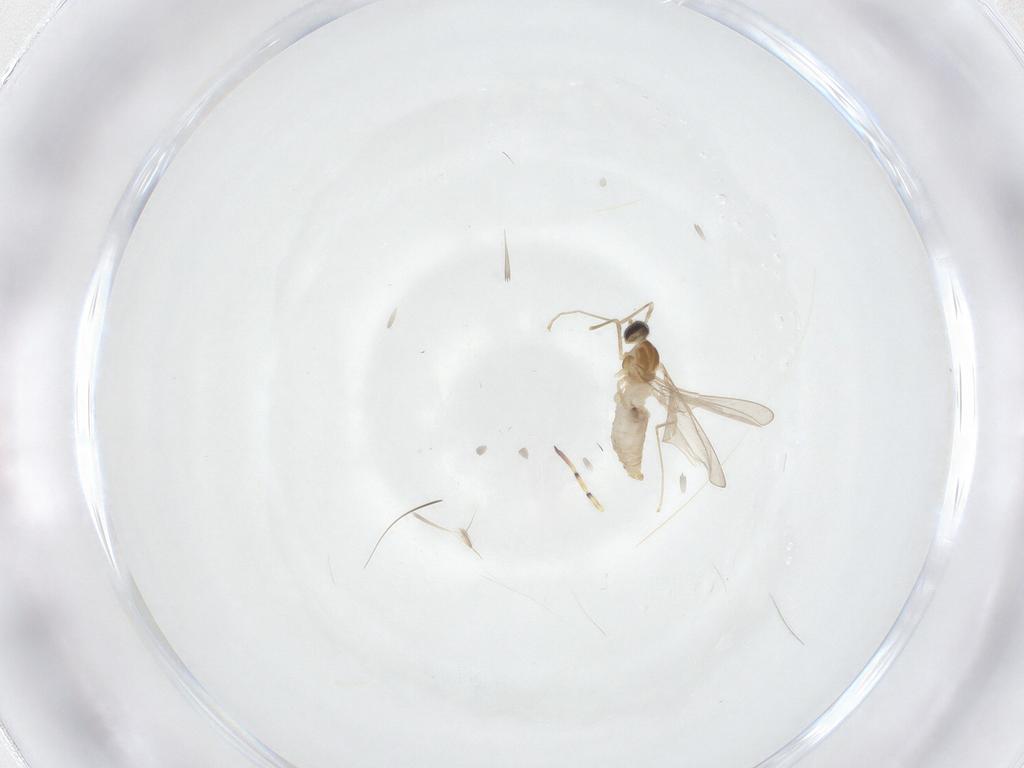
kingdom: Animalia
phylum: Arthropoda
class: Insecta
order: Diptera
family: Cecidomyiidae
